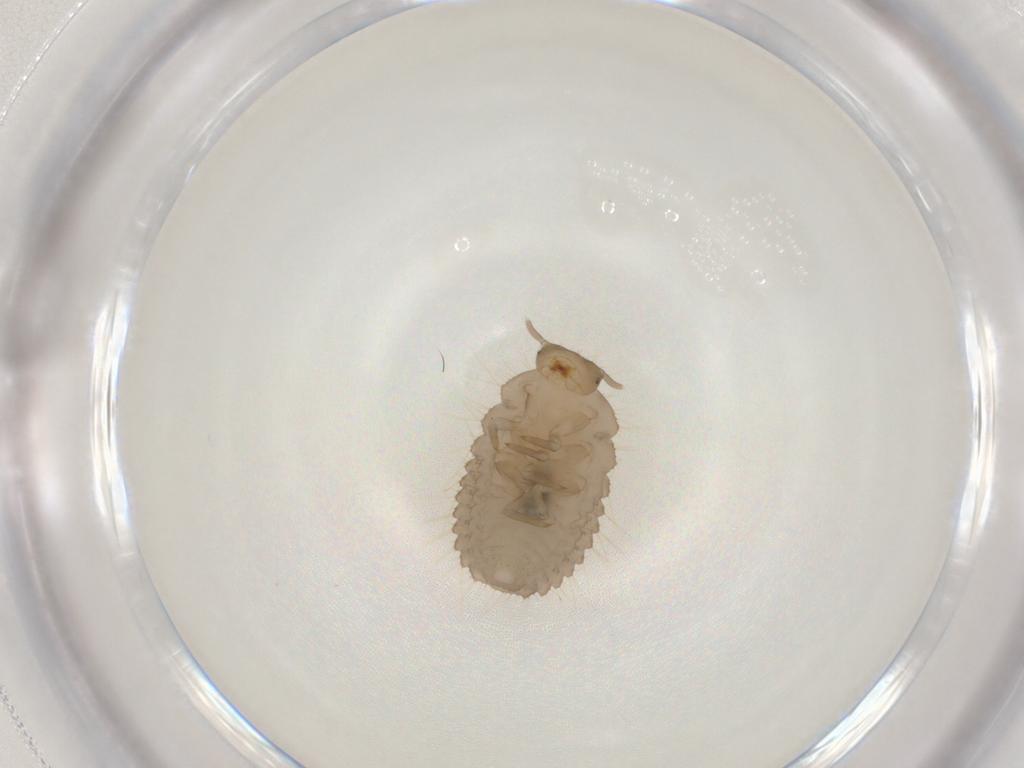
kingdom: Animalia
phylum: Arthropoda
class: Insecta
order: Coleoptera
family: Endomychidae
